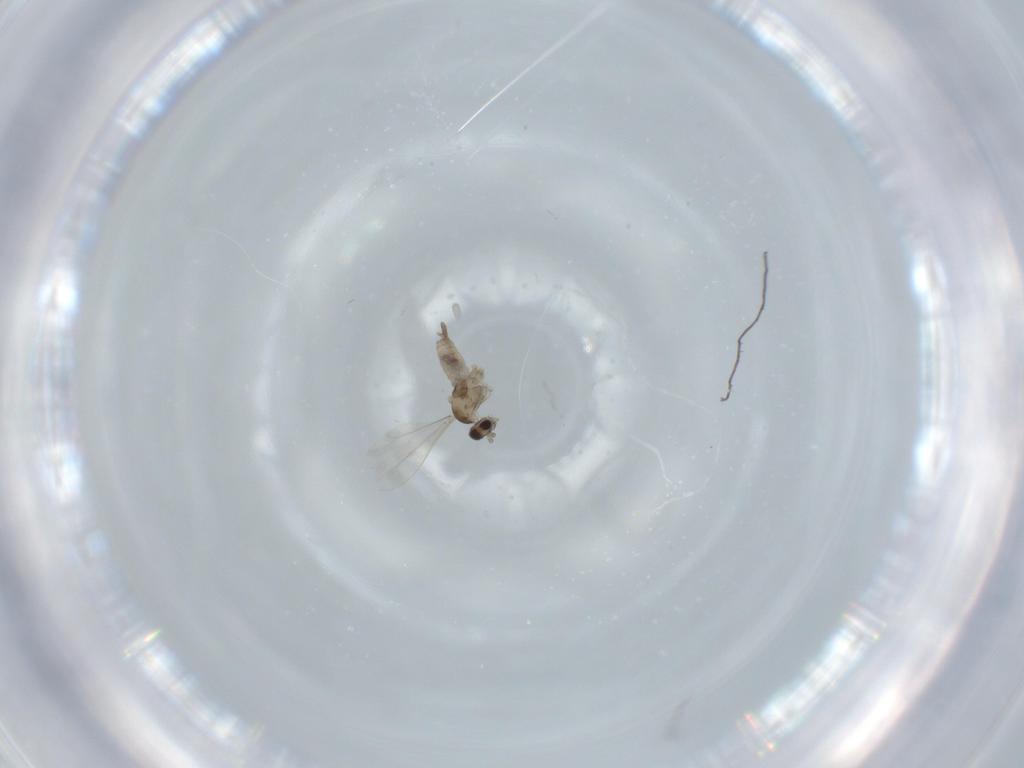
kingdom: Animalia
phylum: Arthropoda
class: Insecta
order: Diptera
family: Cecidomyiidae
